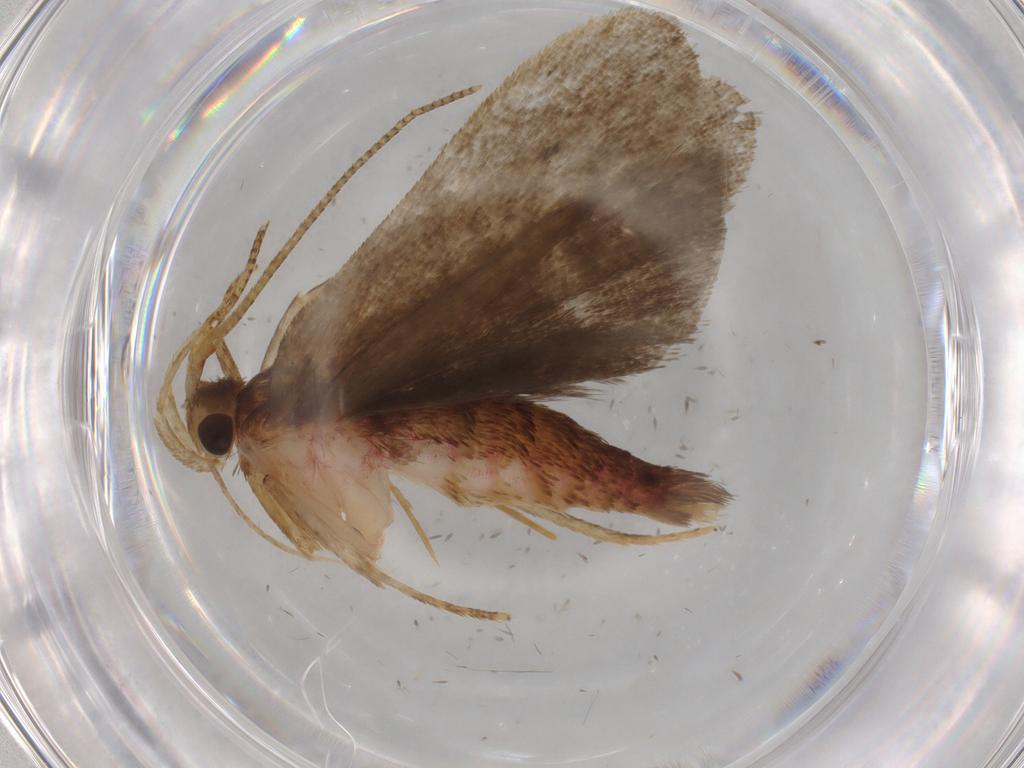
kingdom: Animalia
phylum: Arthropoda
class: Insecta
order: Lepidoptera
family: Autostichidae
